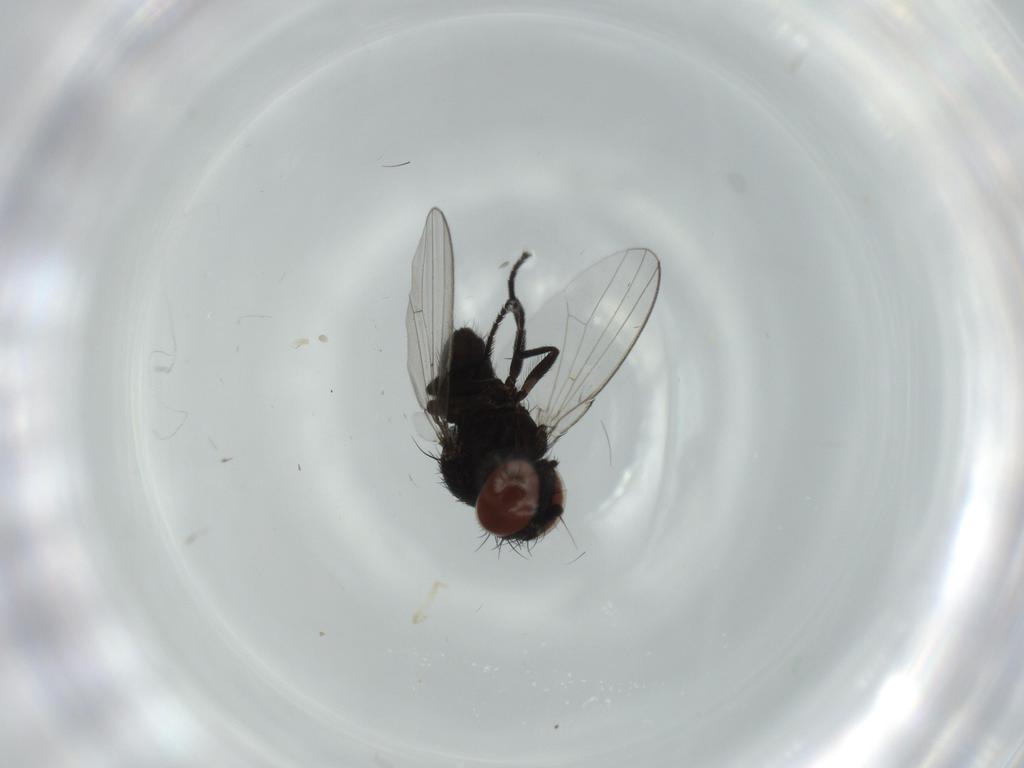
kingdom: Animalia
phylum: Arthropoda
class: Insecta
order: Diptera
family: Milichiidae
